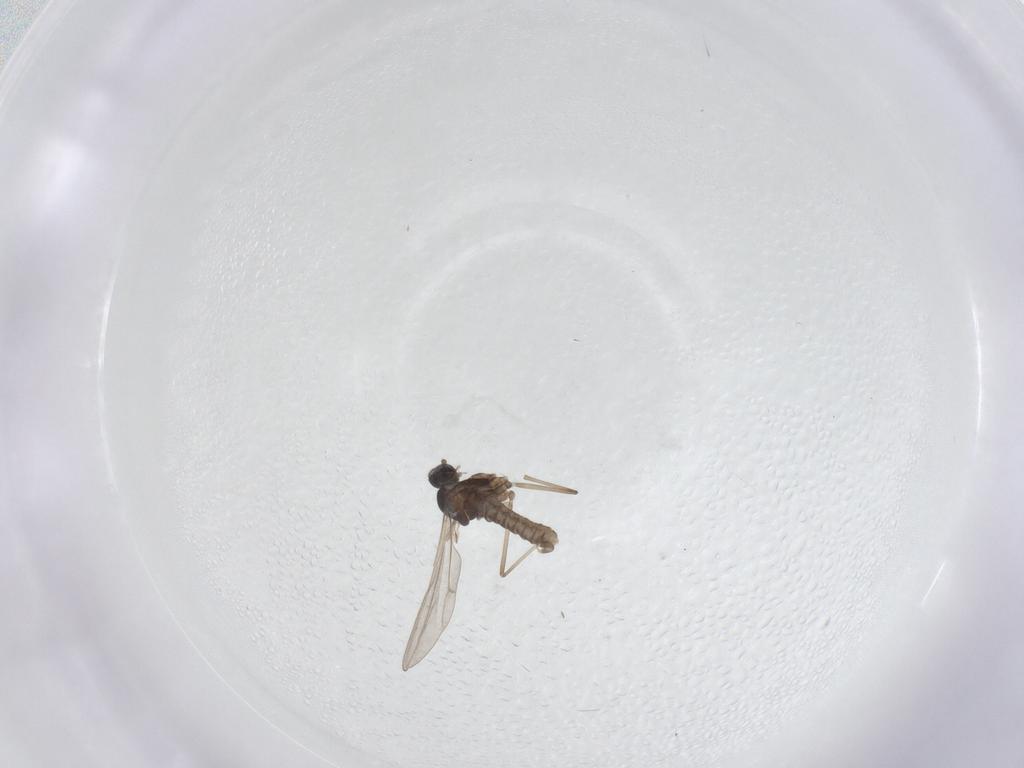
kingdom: Animalia
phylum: Arthropoda
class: Insecta
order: Diptera
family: Cecidomyiidae
